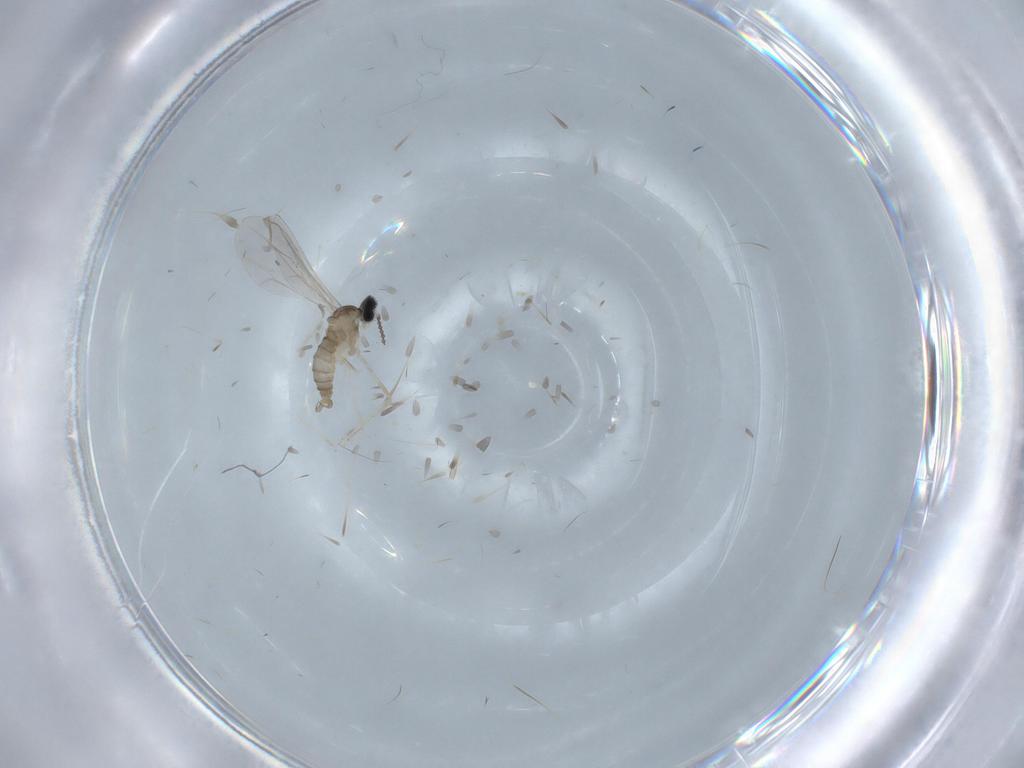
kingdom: Animalia
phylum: Arthropoda
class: Insecta
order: Diptera
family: Cecidomyiidae
